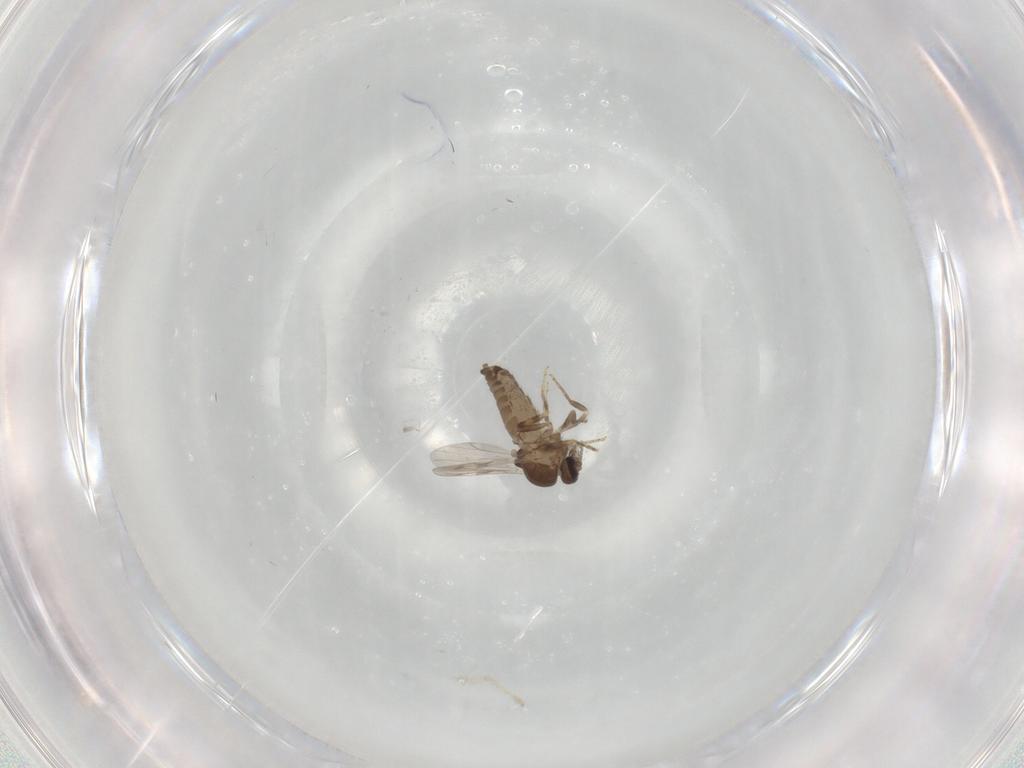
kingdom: Animalia
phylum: Arthropoda
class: Insecta
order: Diptera
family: Ceratopogonidae
